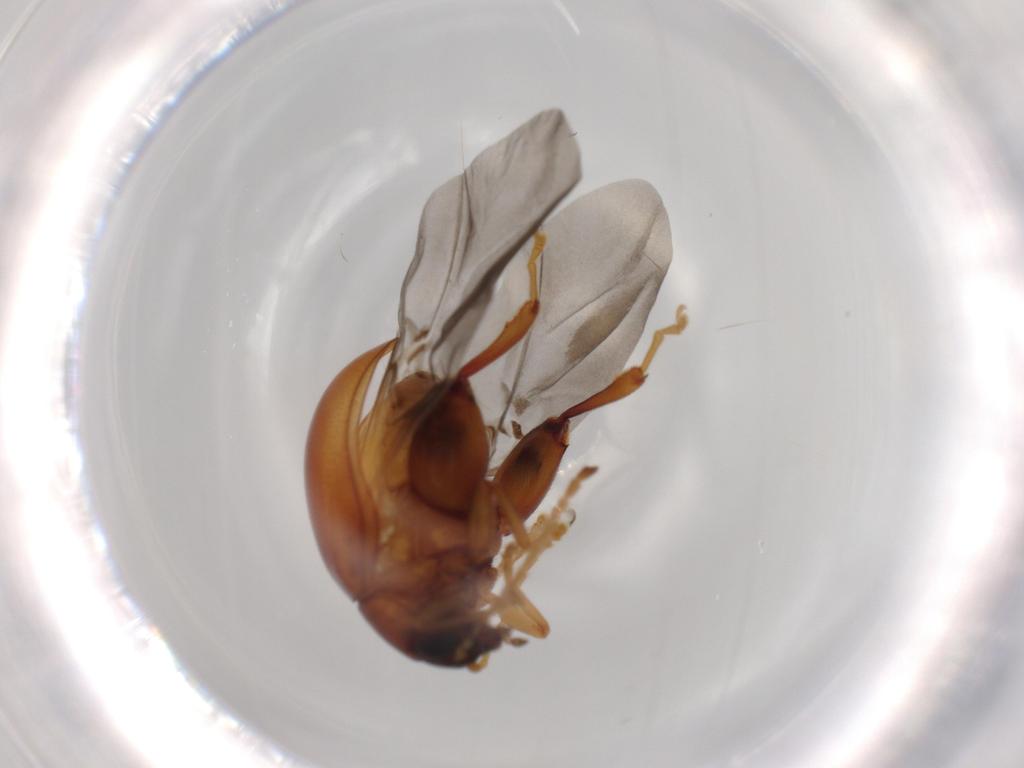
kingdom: Animalia
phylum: Arthropoda
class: Insecta
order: Coleoptera
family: Chrysomelidae
